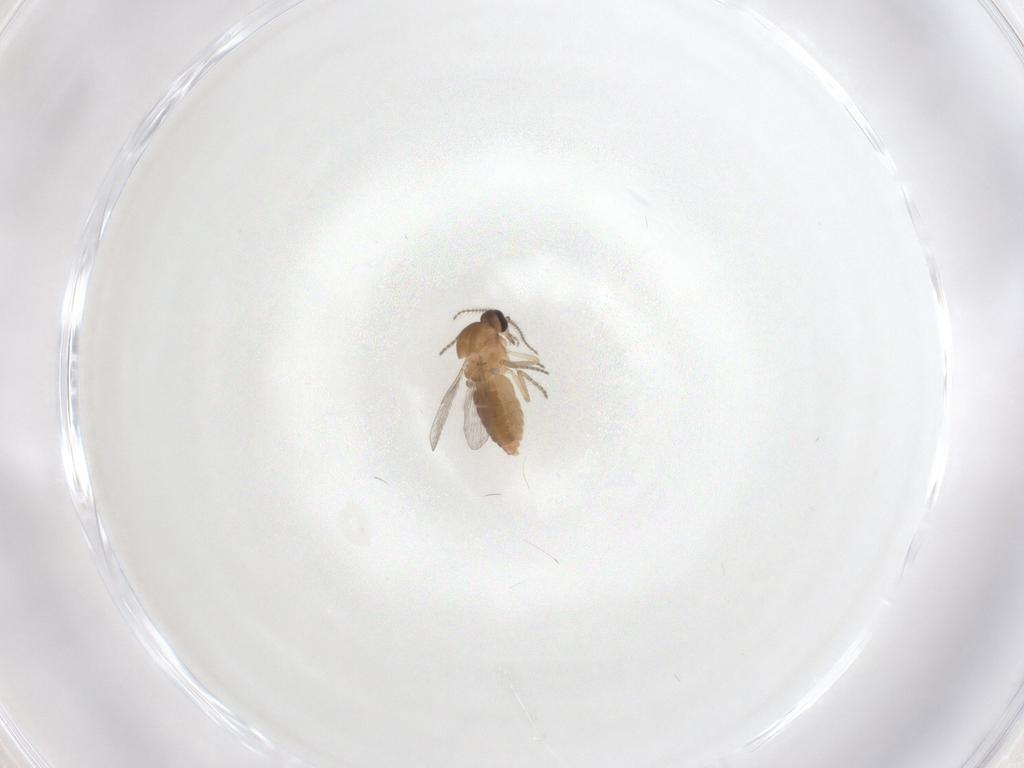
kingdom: Animalia
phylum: Arthropoda
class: Insecta
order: Diptera
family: Ceratopogonidae
